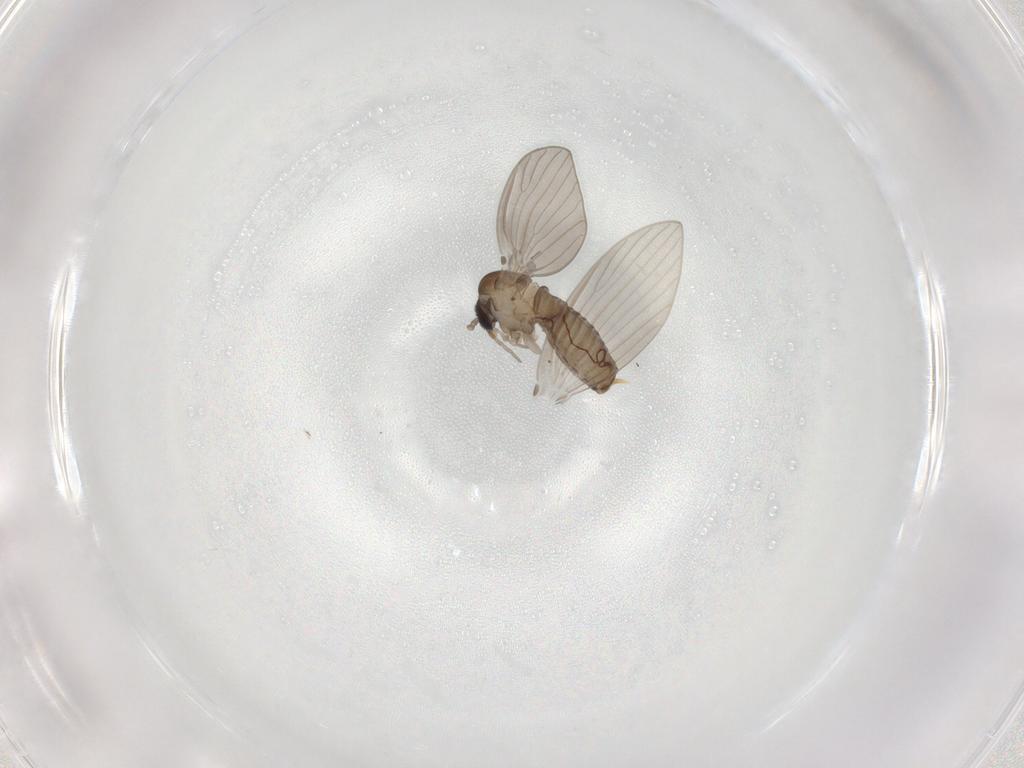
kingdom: Animalia
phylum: Arthropoda
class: Insecta
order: Diptera
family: Psychodidae
